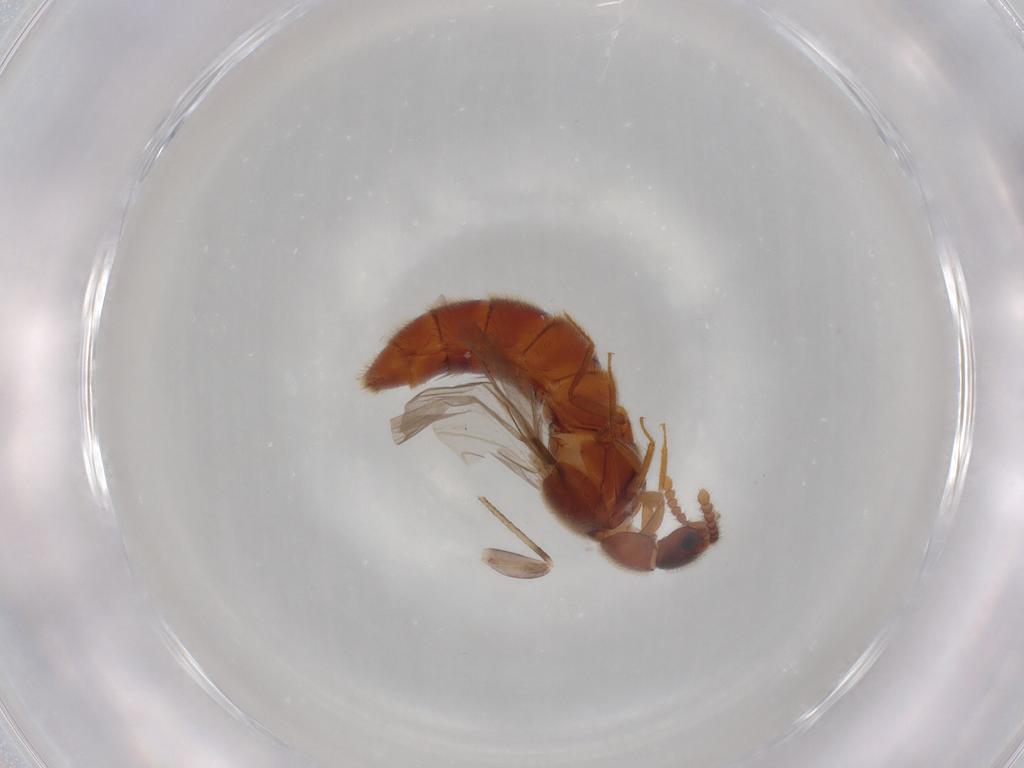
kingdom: Animalia
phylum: Arthropoda
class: Insecta
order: Coleoptera
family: Staphylinidae
